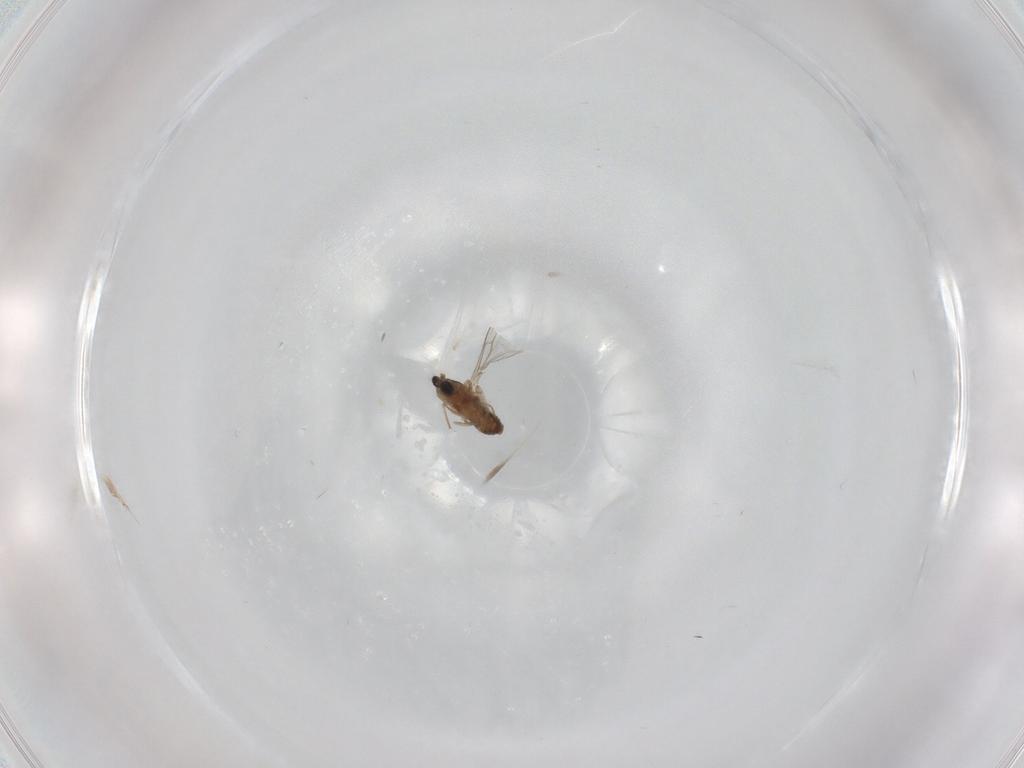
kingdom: Animalia
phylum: Arthropoda
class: Insecta
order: Diptera
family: Cecidomyiidae
